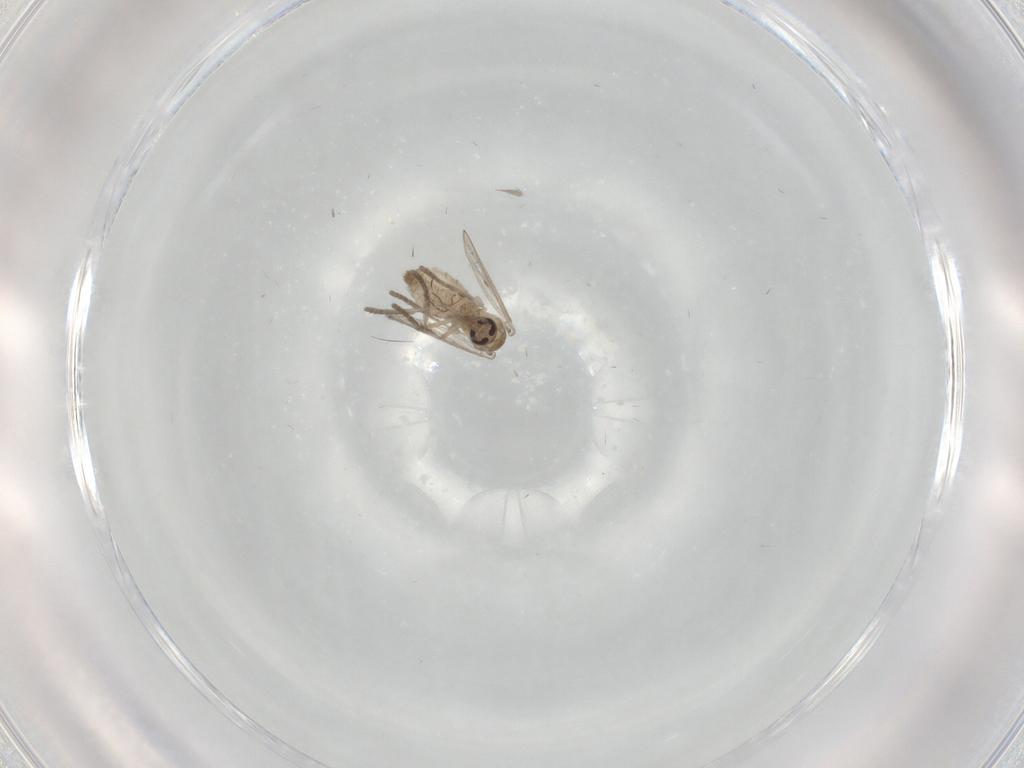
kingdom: Animalia
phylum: Arthropoda
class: Insecta
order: Diptera
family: Psychodidae
